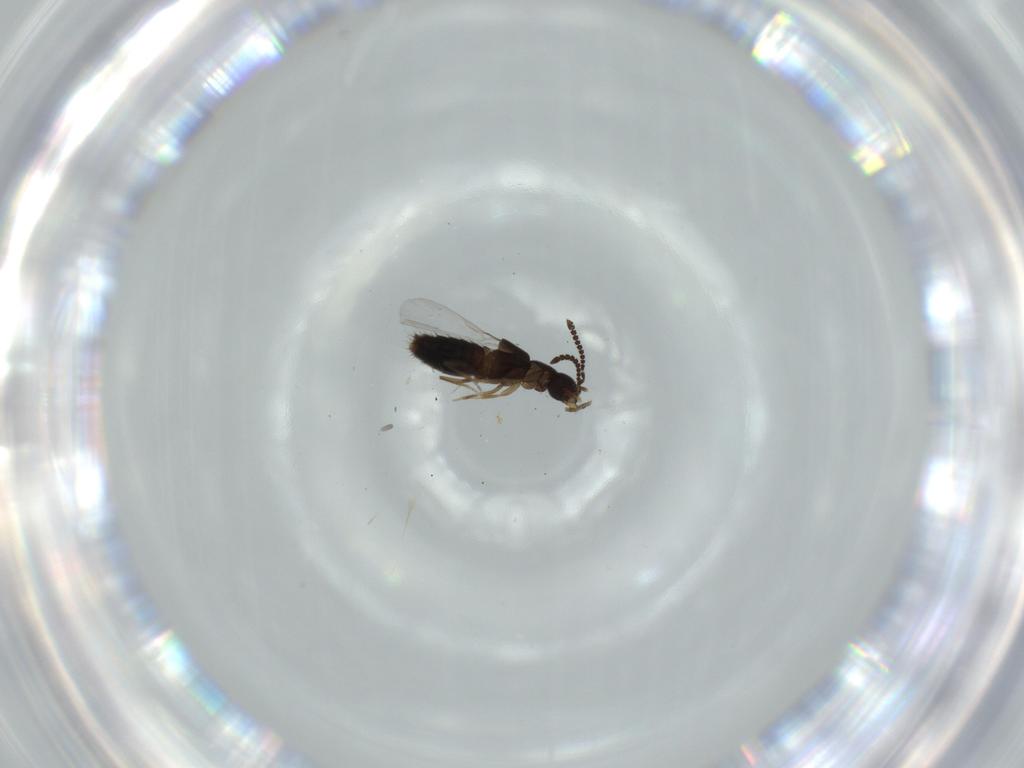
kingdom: Animalia
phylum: Arthropoda
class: Insecta
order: Coleoptera
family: Staphylinidae
